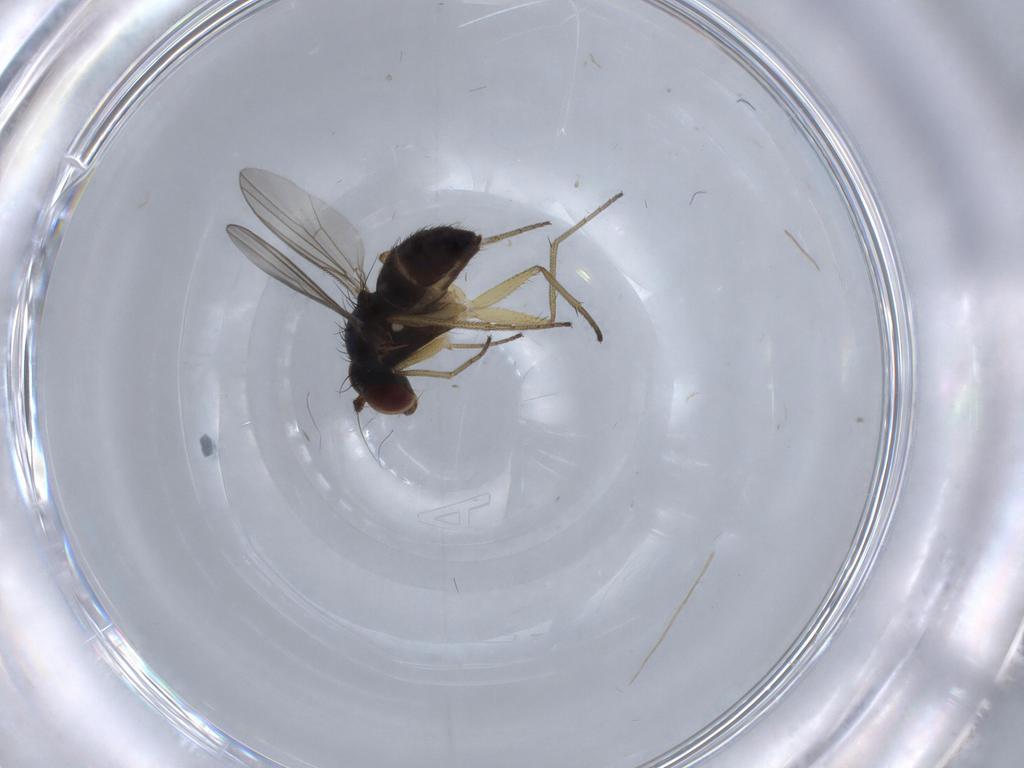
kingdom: Animalia
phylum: Arthropoda
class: Insecta
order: Diptera
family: Dolichopodidae
